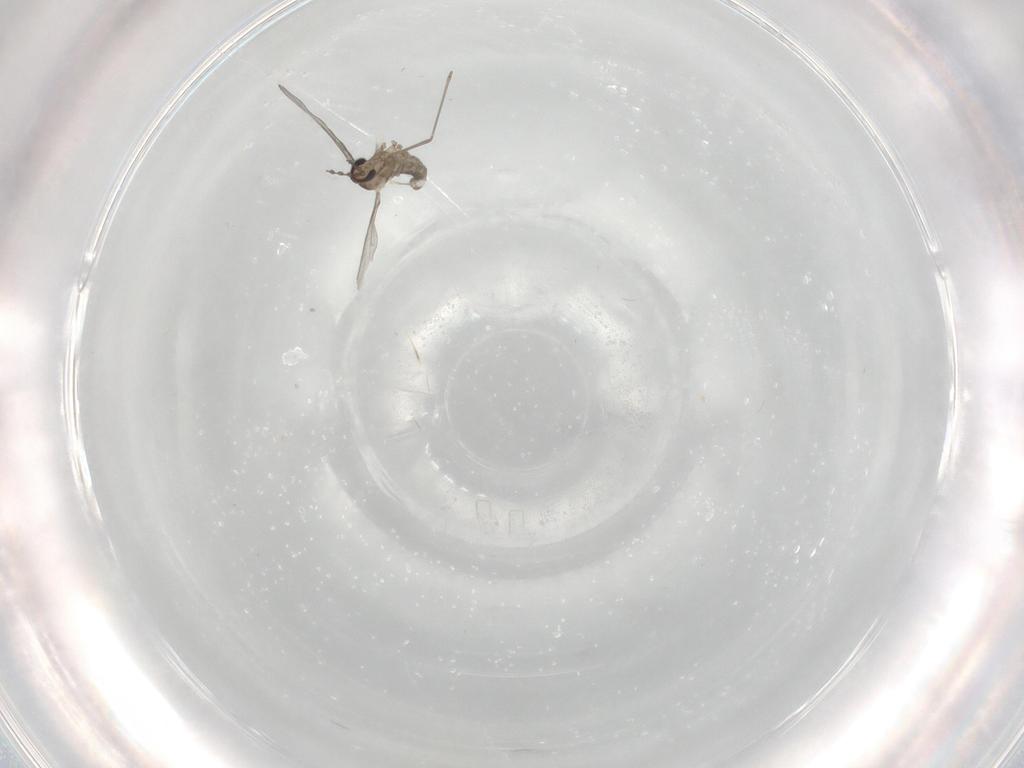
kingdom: Animalia
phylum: Arthropoda
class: Insecta
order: Diptera
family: Cecidomyiidae
